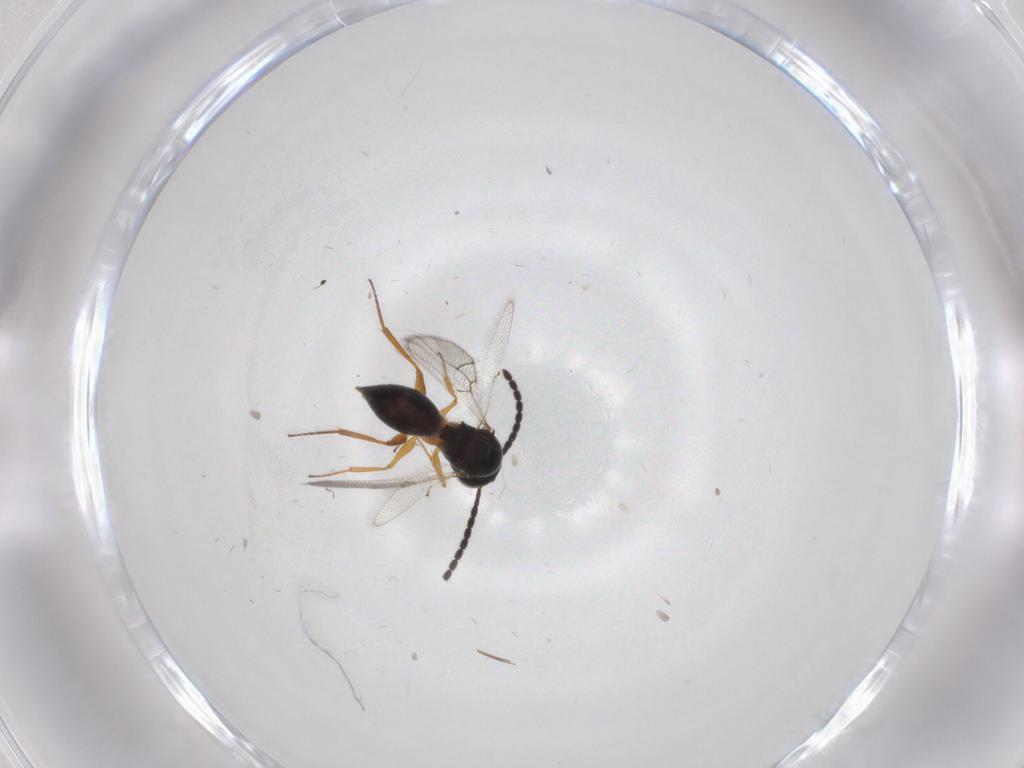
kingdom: Animalia
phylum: Arthropoda
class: Insecta
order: Hymenoptera
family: Figitidae
